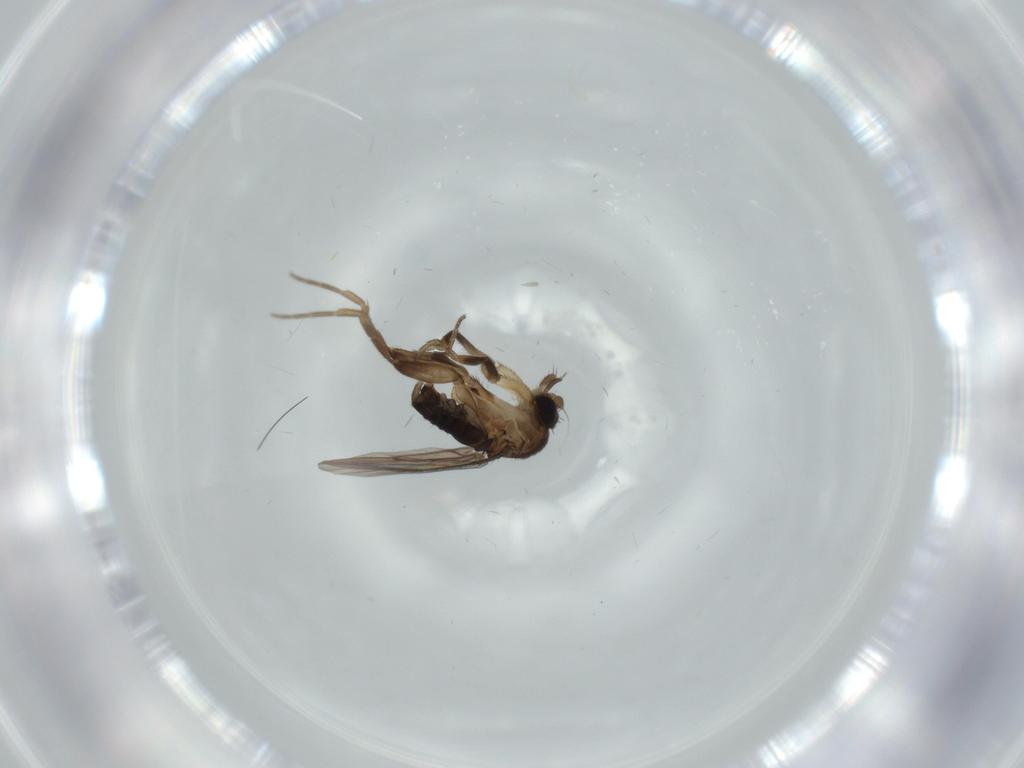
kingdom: Animalia
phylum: Arthropoda
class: Insecta
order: Diptera
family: Phoridae
